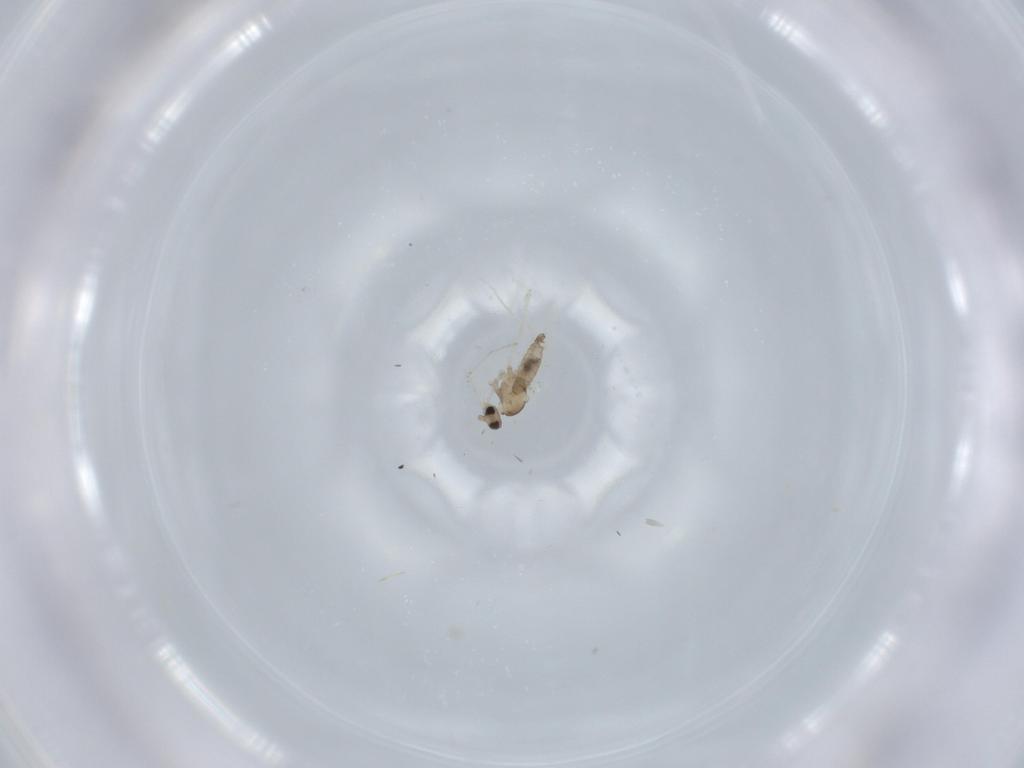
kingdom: Animalia
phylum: Arthropoda
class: Insecta
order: Diptera
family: Cecidomyiidae
